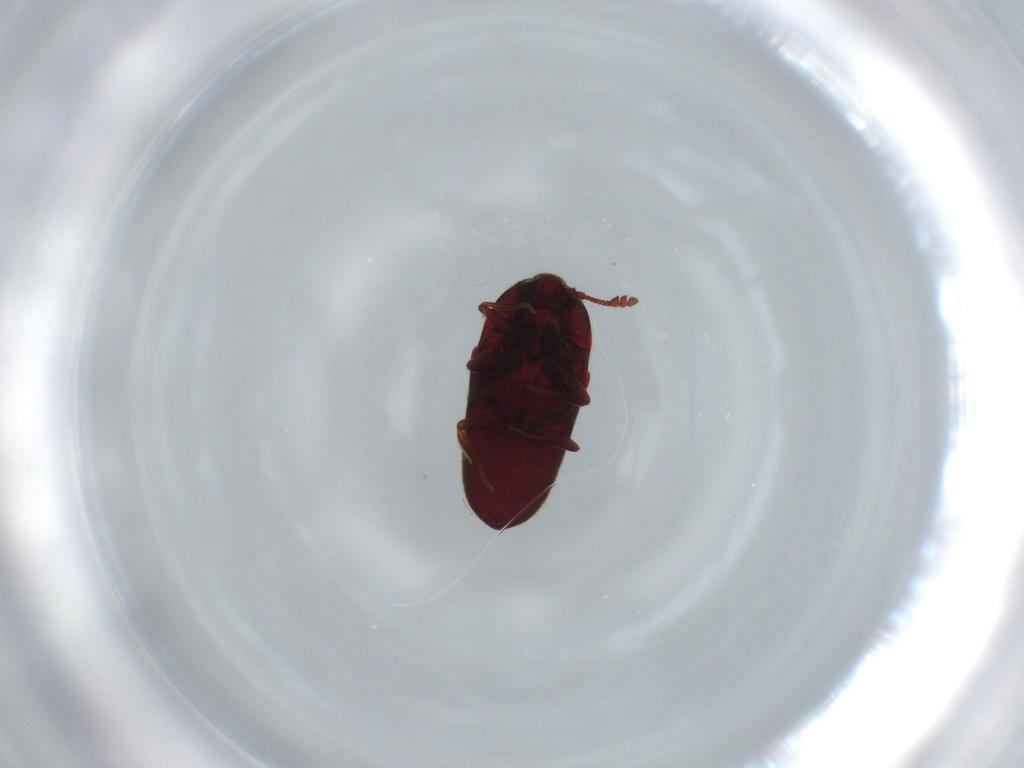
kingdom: Animalia
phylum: Arthropoda
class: Insecta
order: Coleoptera
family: Throscidae
